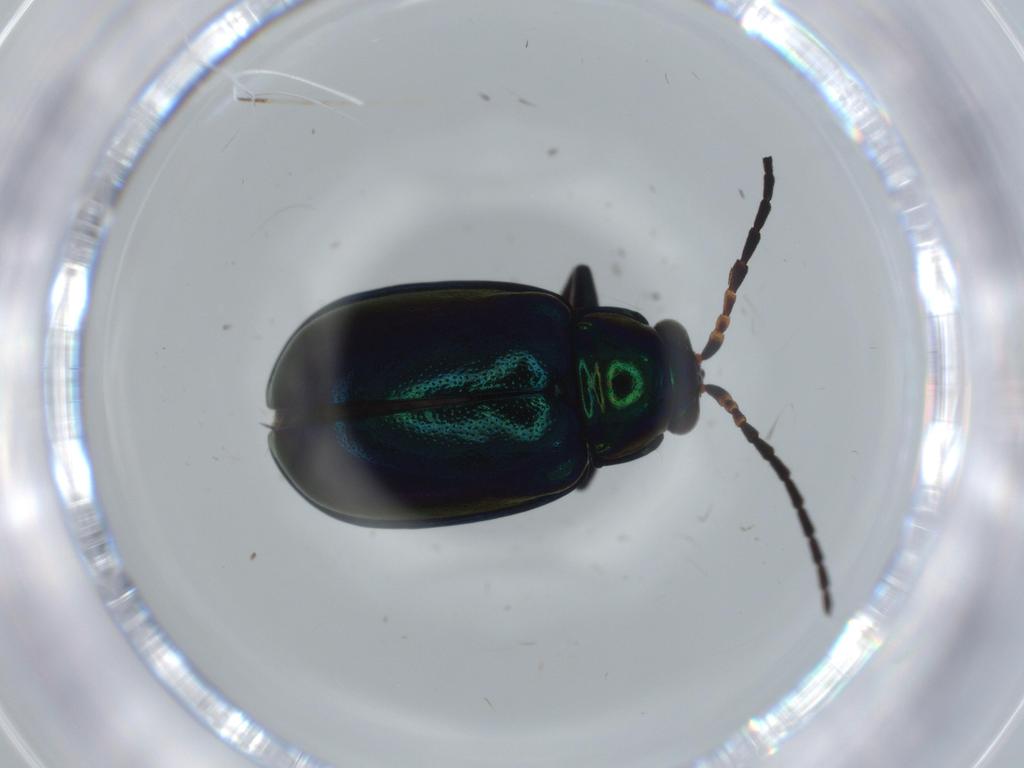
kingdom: Animalia
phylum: Arthropoda
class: Insecta
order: Coleoptera
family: Chrysomelidae
